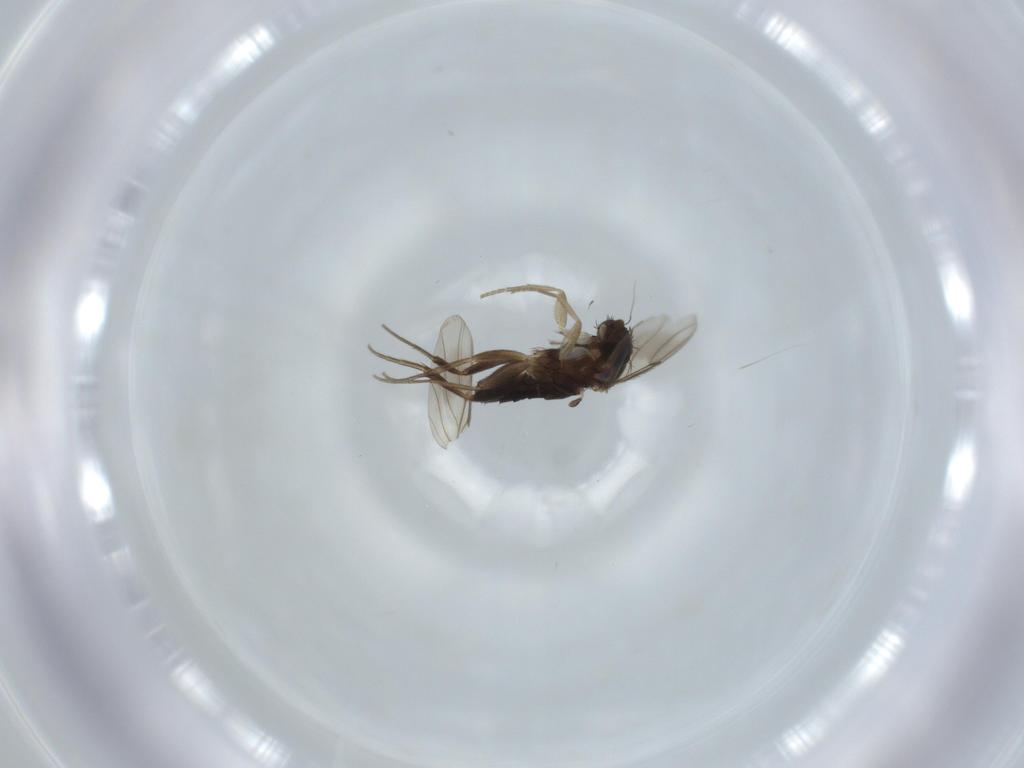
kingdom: Animalia
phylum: Arthropoda
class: Insecta
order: Diptera
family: Phoridae
